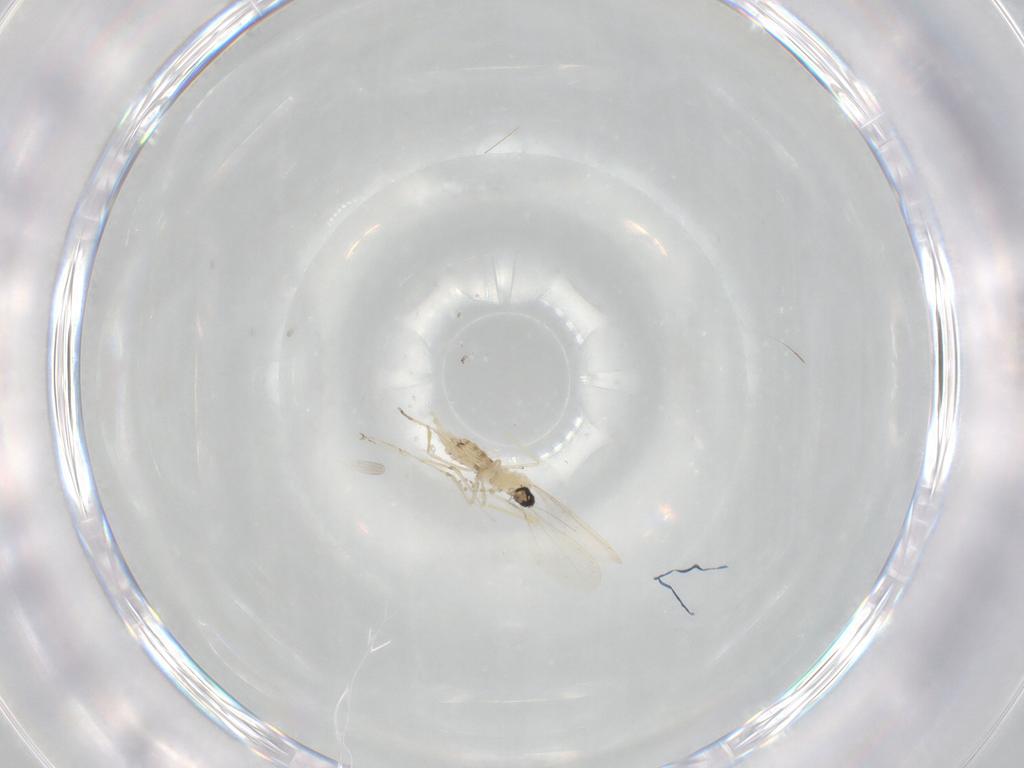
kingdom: Animalia
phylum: Arthropoda
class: Insecta
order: Diptera
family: Cecidomyiidae
